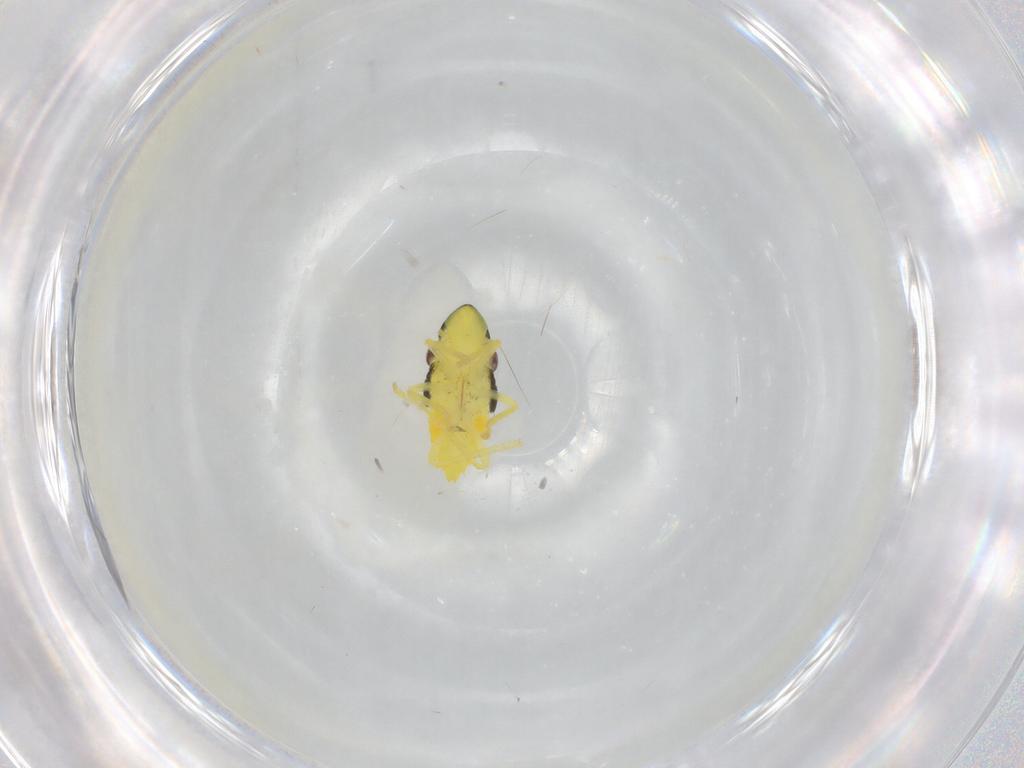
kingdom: Animalia
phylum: Arthropoda
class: Insecta
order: Hemiptera
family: Cicadellidae
